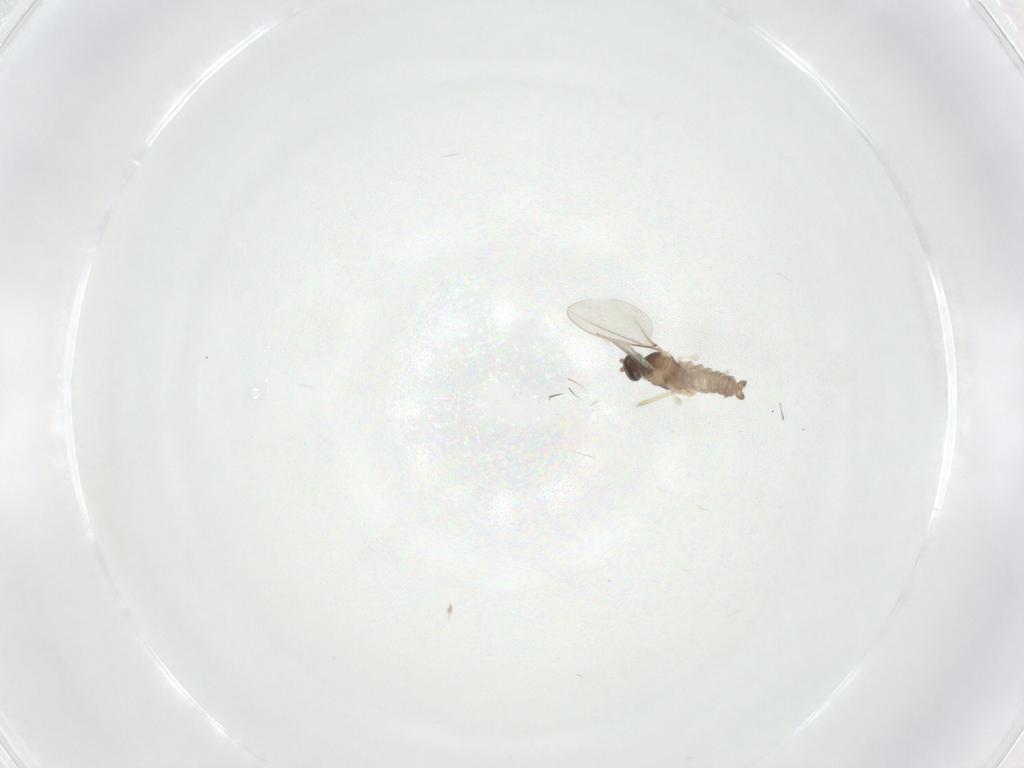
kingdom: Animalia
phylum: Arthropoda
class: Insecta
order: Diptera
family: Cecidomyiidae
